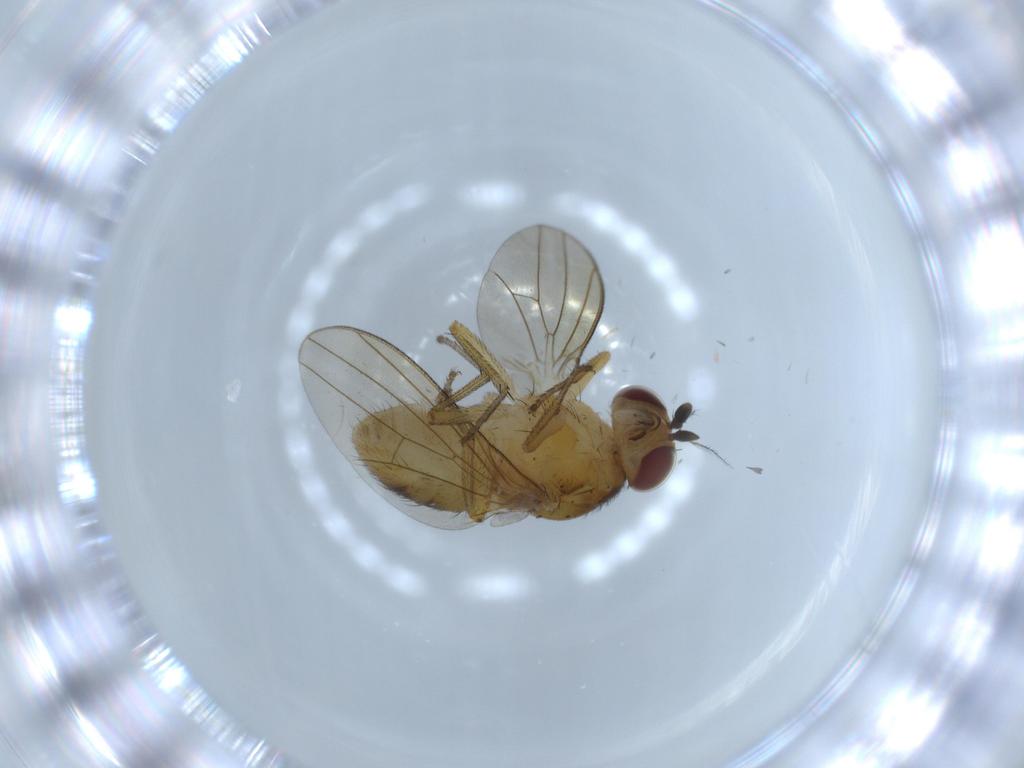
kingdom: Animalia
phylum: Arthropoda
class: Insecta
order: Diptera
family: Lauxaniidae
